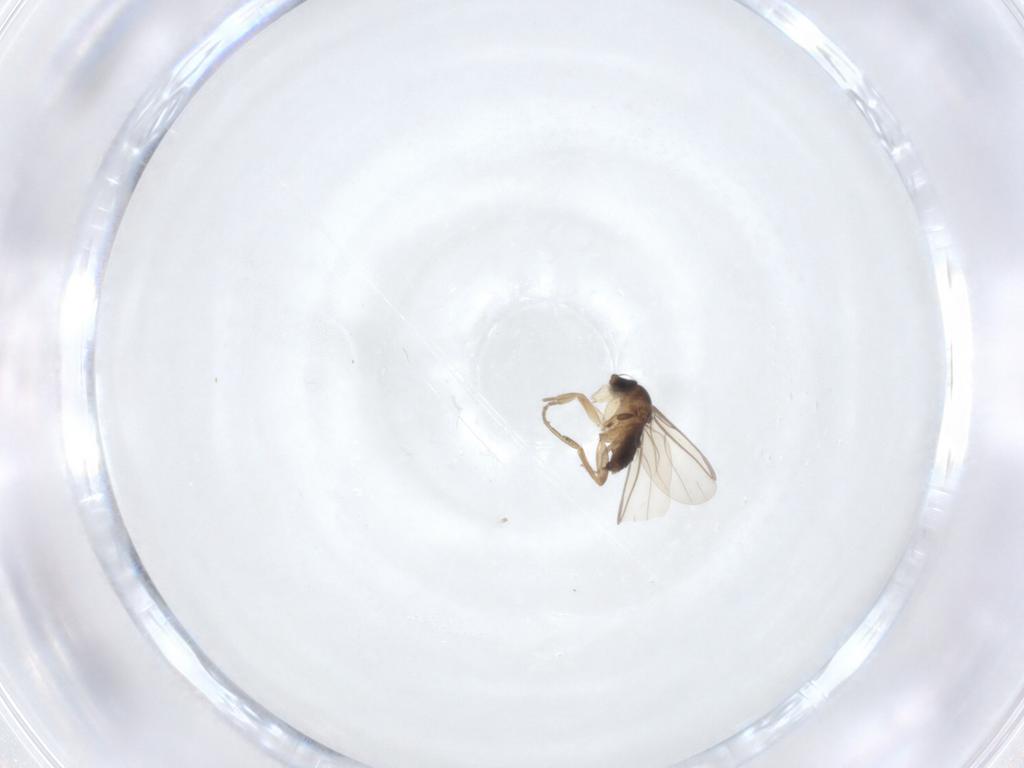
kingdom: Animalia
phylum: Arthropoda
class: Insecta
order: Diptera
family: Phoridae
